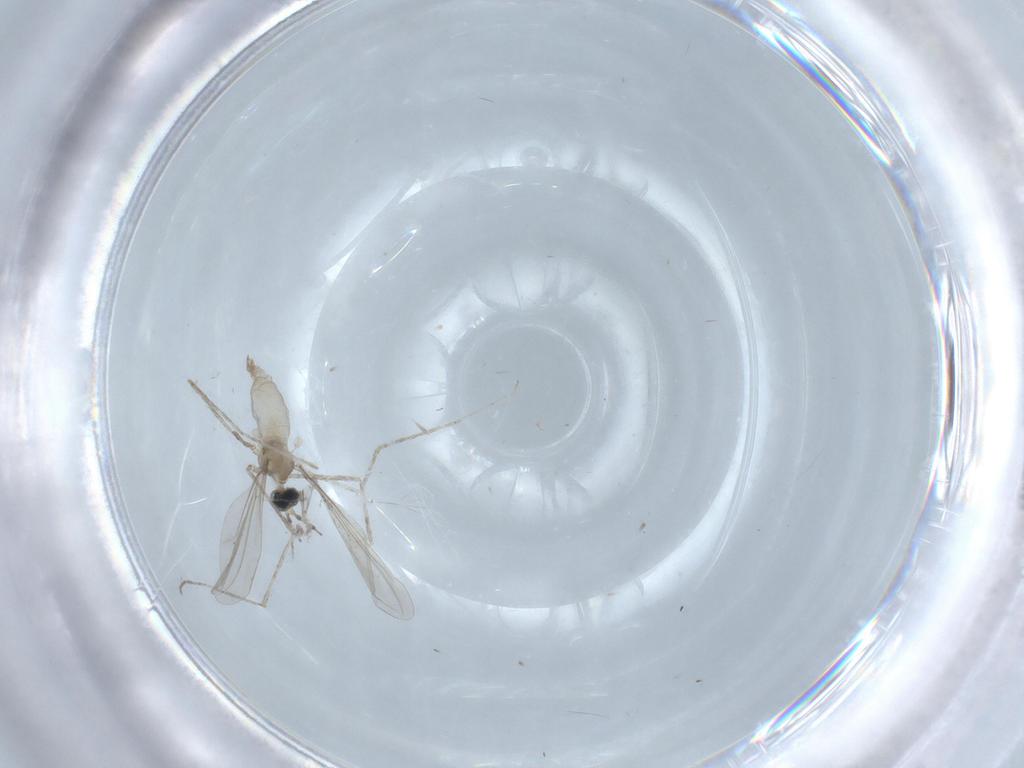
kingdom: Animalia
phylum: Arthropoda
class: Insecta
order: Diptera
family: Cecidomyiidae
